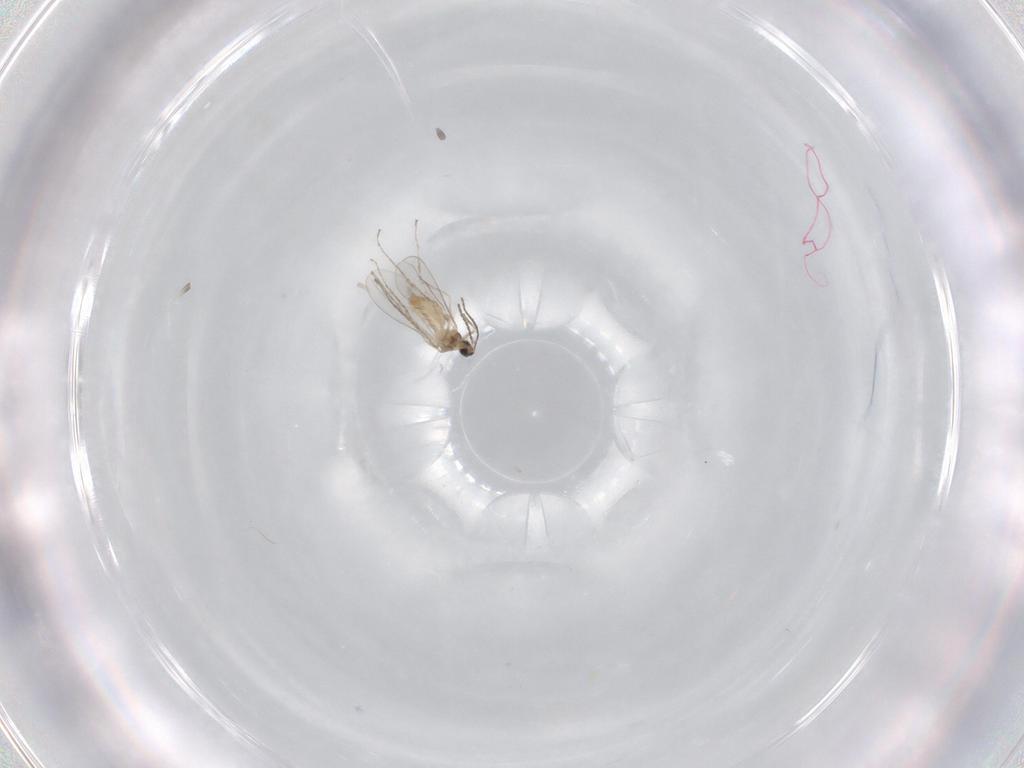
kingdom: Animalia
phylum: Arthropoda
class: Insecta
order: Diptera
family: Cecidomyiidae
